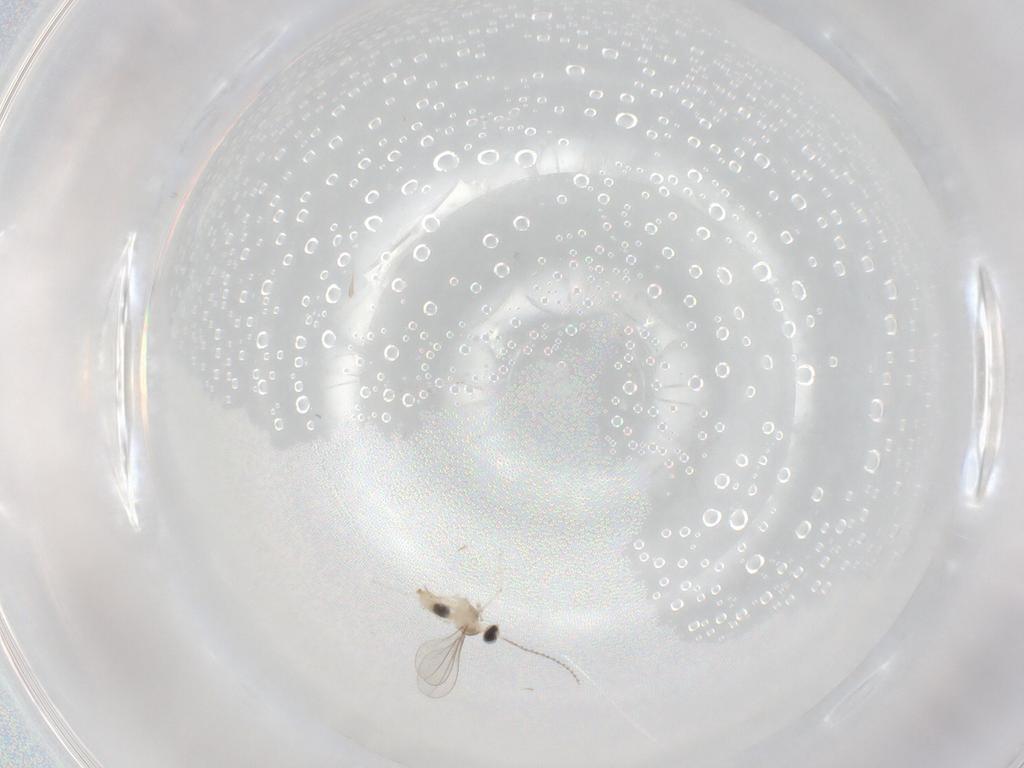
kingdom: Animalia
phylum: Arthropoda
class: Insecta
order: Diptera
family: Cecidomyiidae
